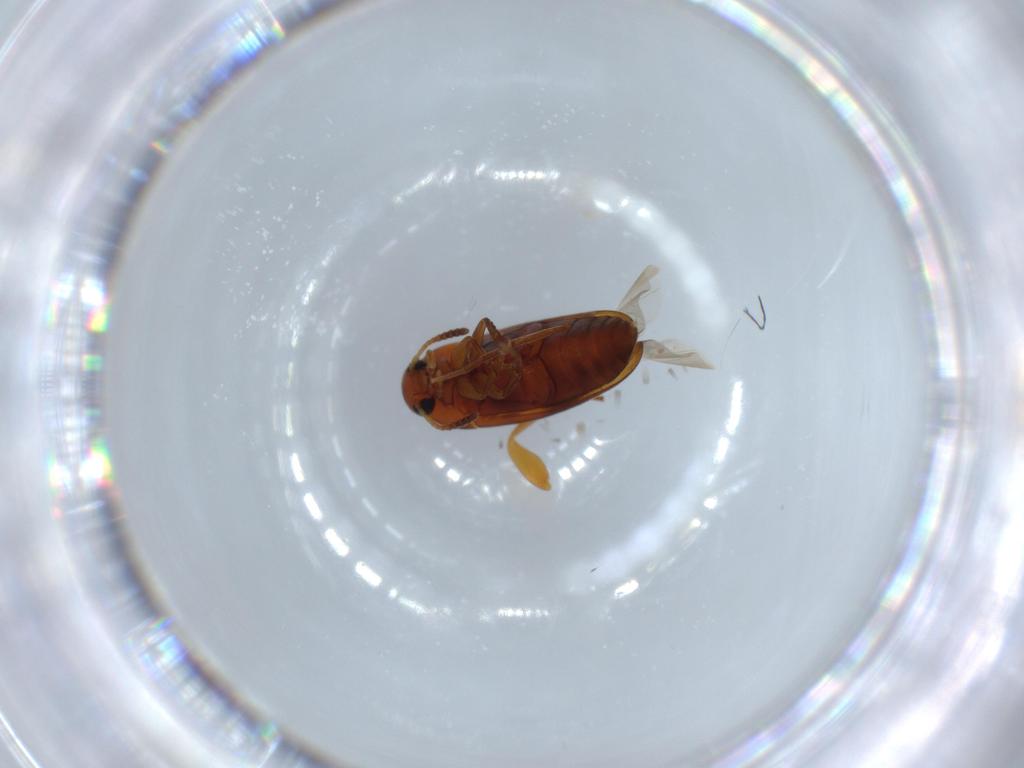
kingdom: Animalia
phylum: Arthropoda
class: Insecta
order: Coleoptera
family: Scraptiidae
